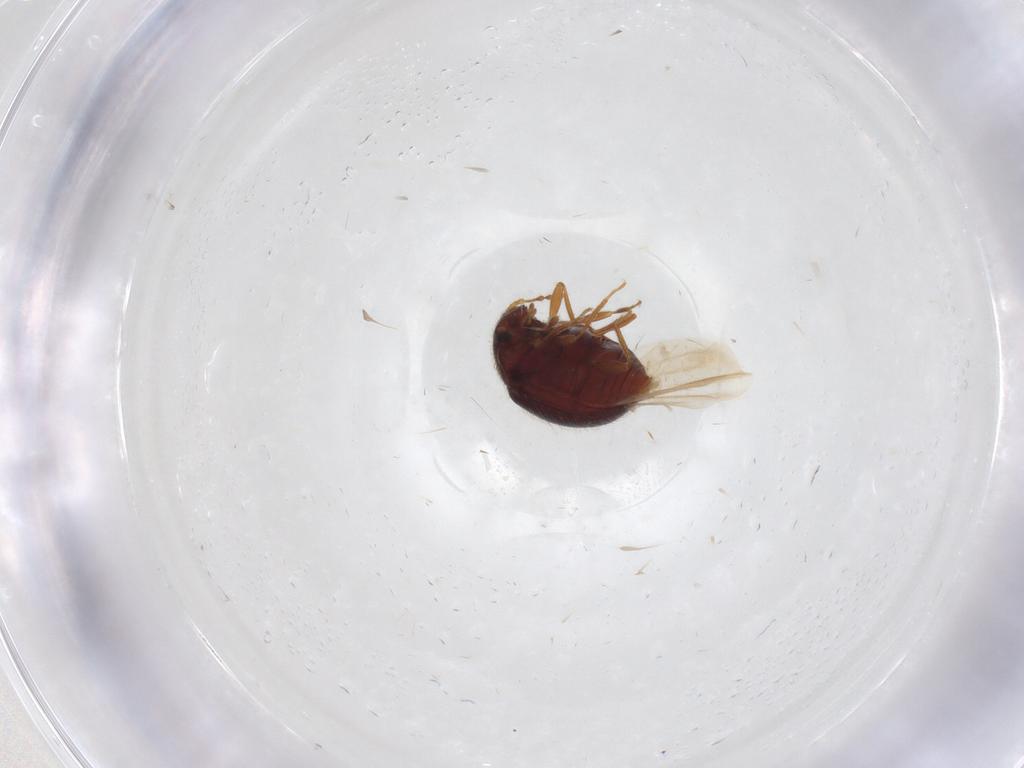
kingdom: Animalia
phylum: Arthropoda
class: Insecta
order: Coleoptera
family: Anamorphidae
